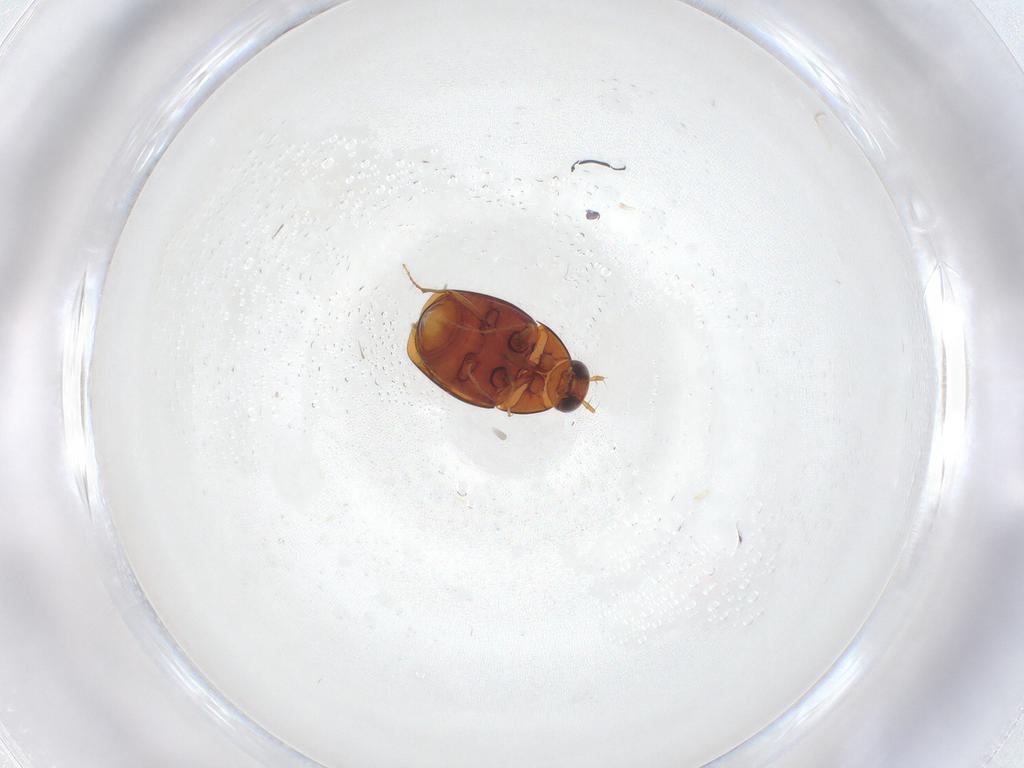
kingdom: Animalia
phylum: Arthropoda
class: Insecta
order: Coleoptera
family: Staphylinidae
